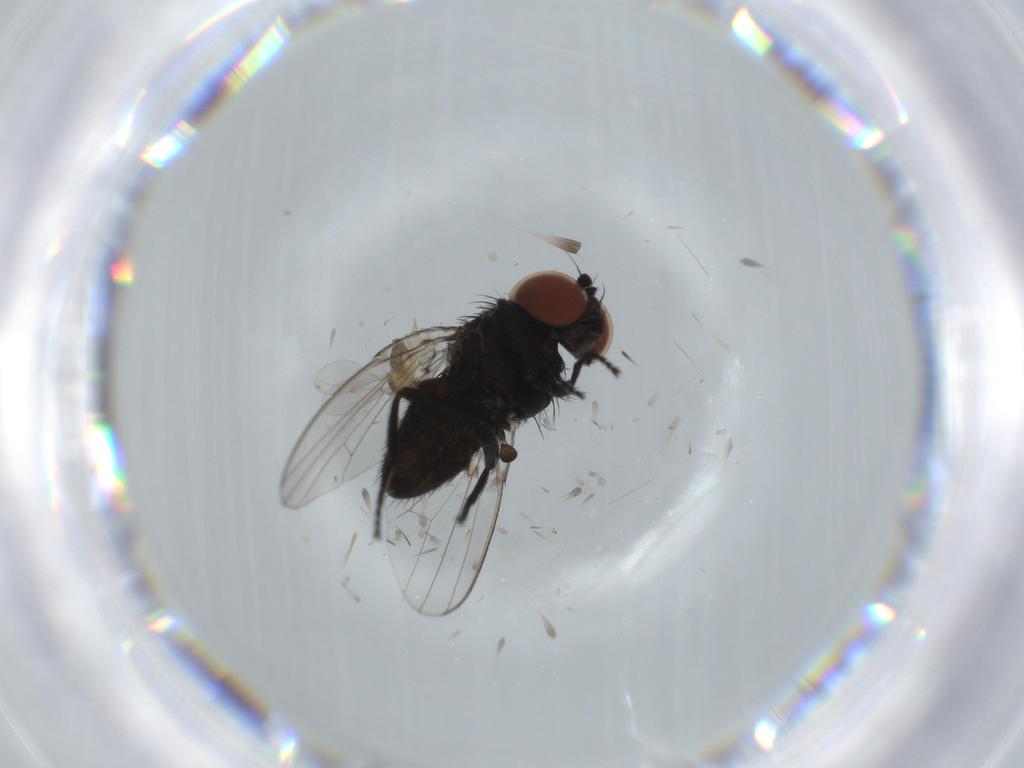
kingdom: Animalia
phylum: Arthropoda
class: Insecta
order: Diptera
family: Milichiidae
